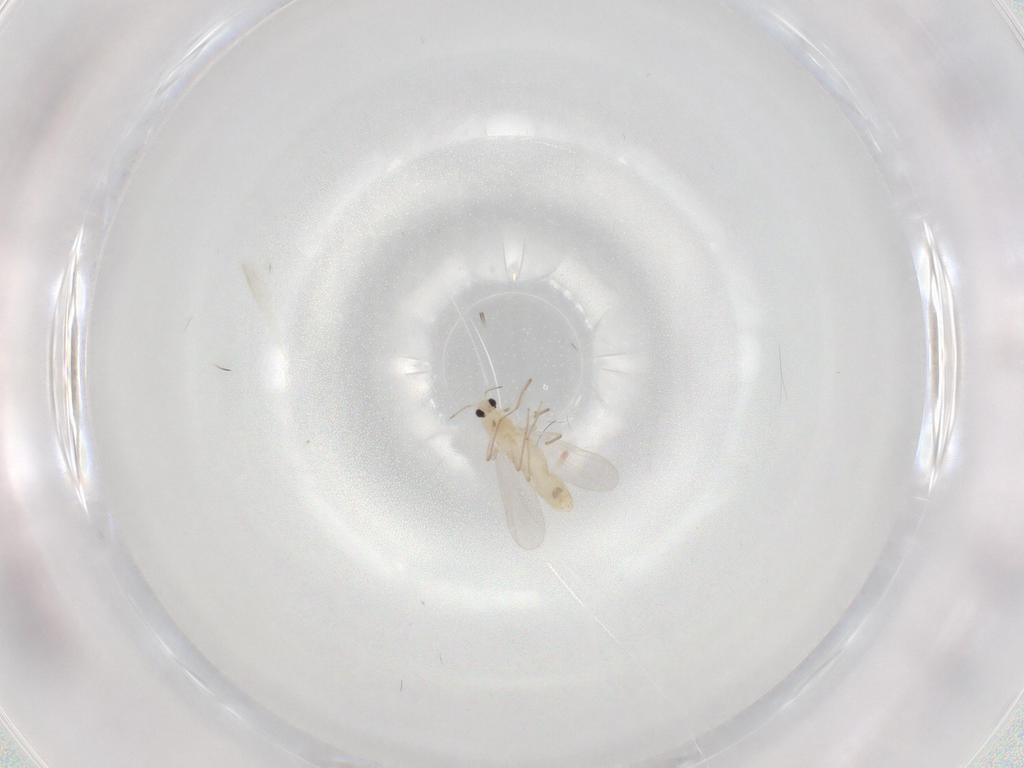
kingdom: Animalia
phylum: Arthropoda
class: Insecta
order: Diptera
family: Chironomidae
